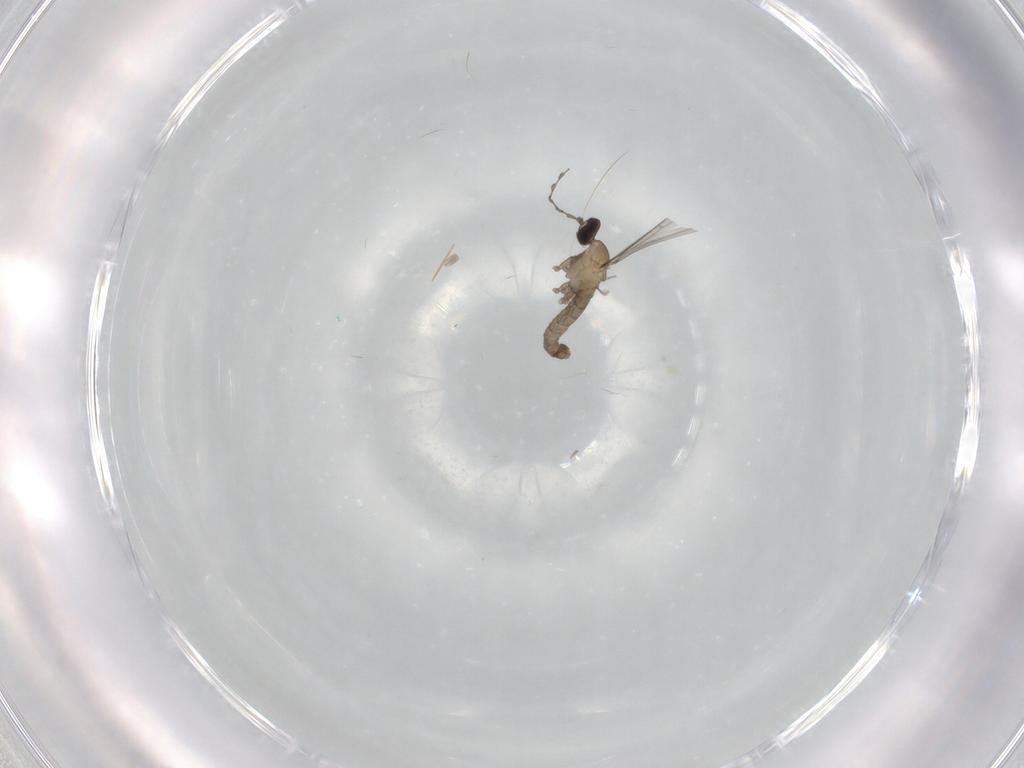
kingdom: Animalia
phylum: Arthropoda
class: Insecta
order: Diptera
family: Cecidomyiidae
